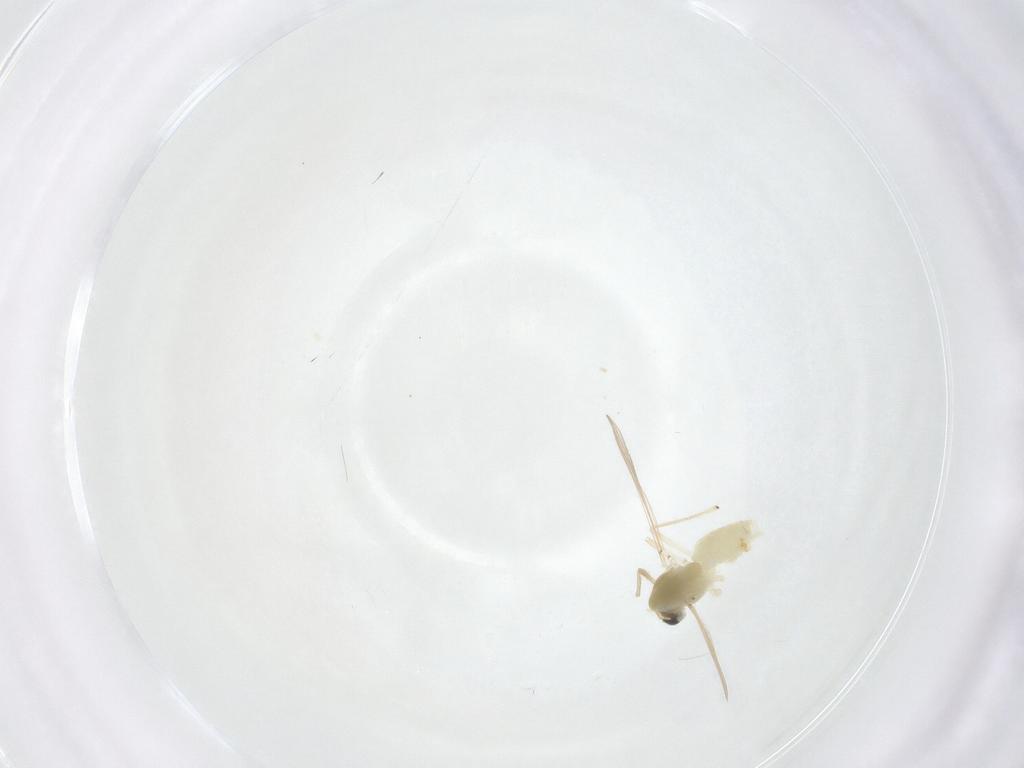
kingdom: Animalia
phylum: Arthropoda
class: Insecta
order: Diptera
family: Chironomidae
